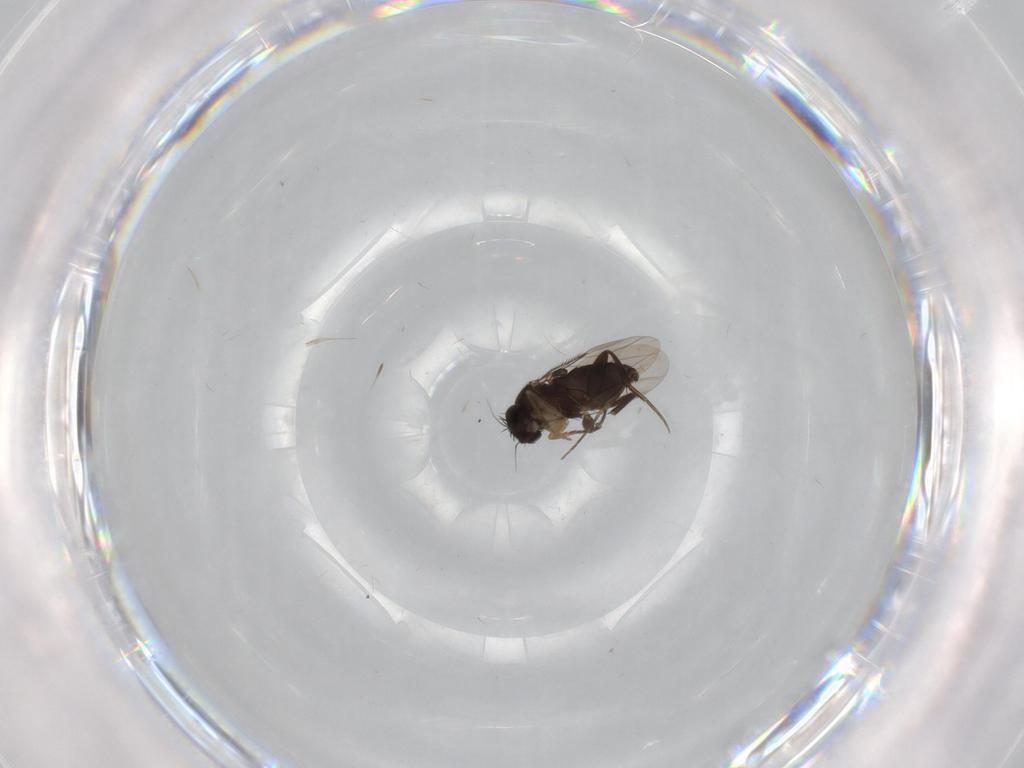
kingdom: Animalia
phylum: Arthropoda
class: Insecta
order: Diptera
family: Phoridae
